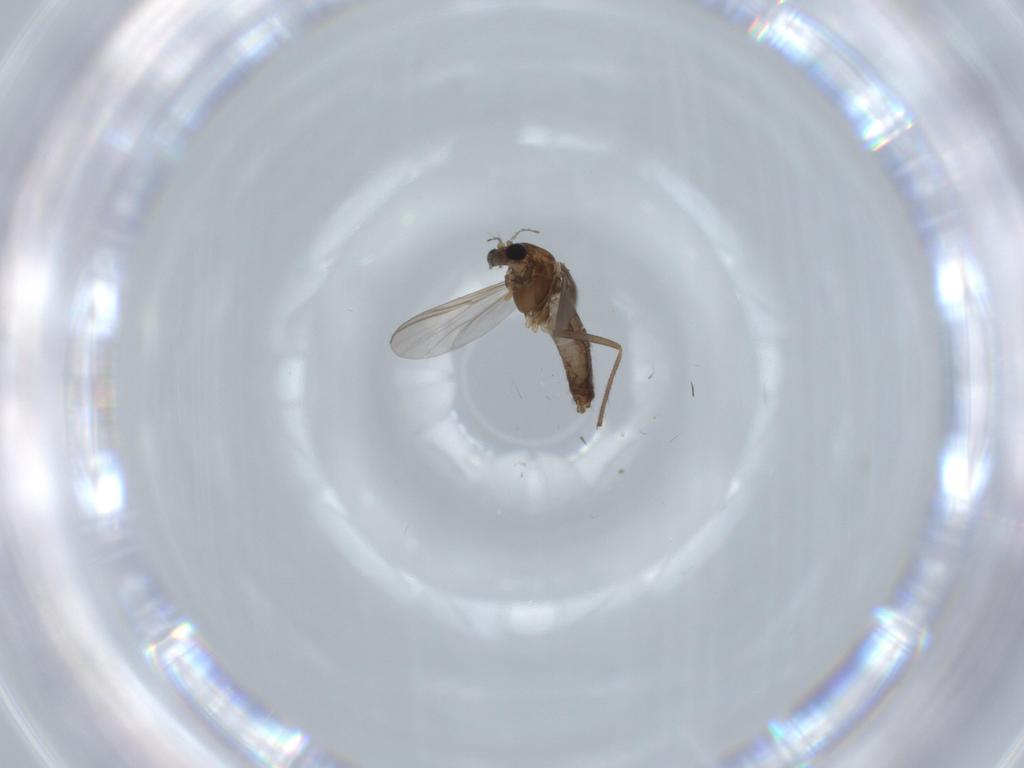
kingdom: Animalia
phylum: Arthropoda
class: Insecta
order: Diptera
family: Chironomidae
